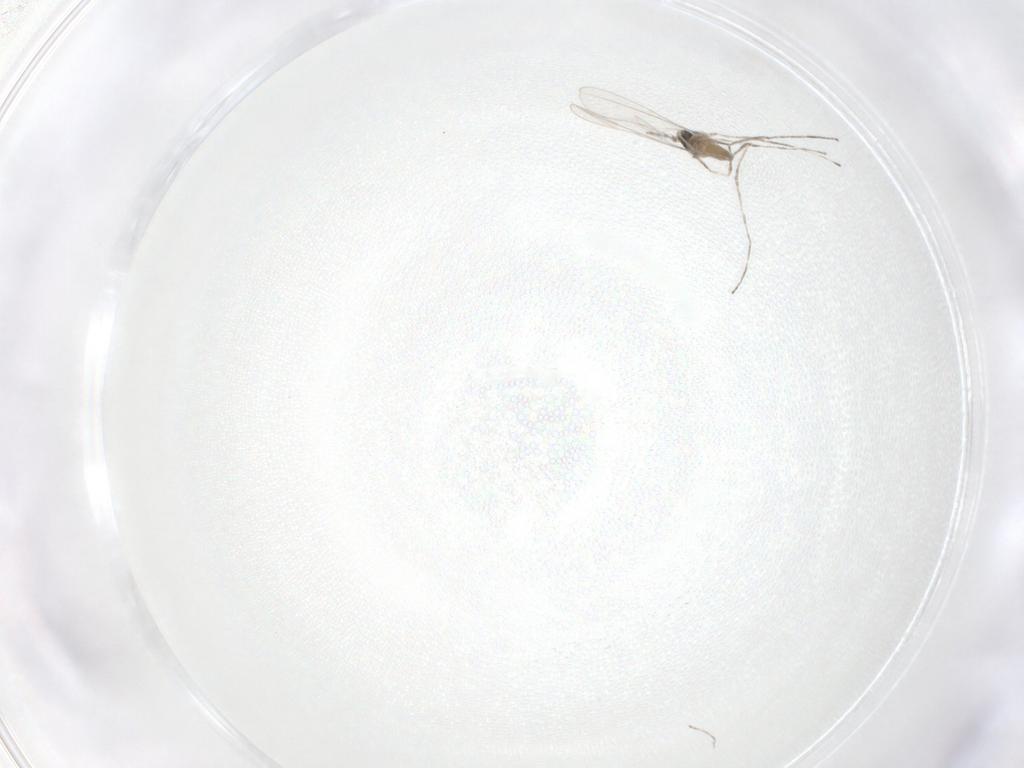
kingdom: Animalia
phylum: Arthropoda
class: Insecta
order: Diptera
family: Cecidomyiidae
